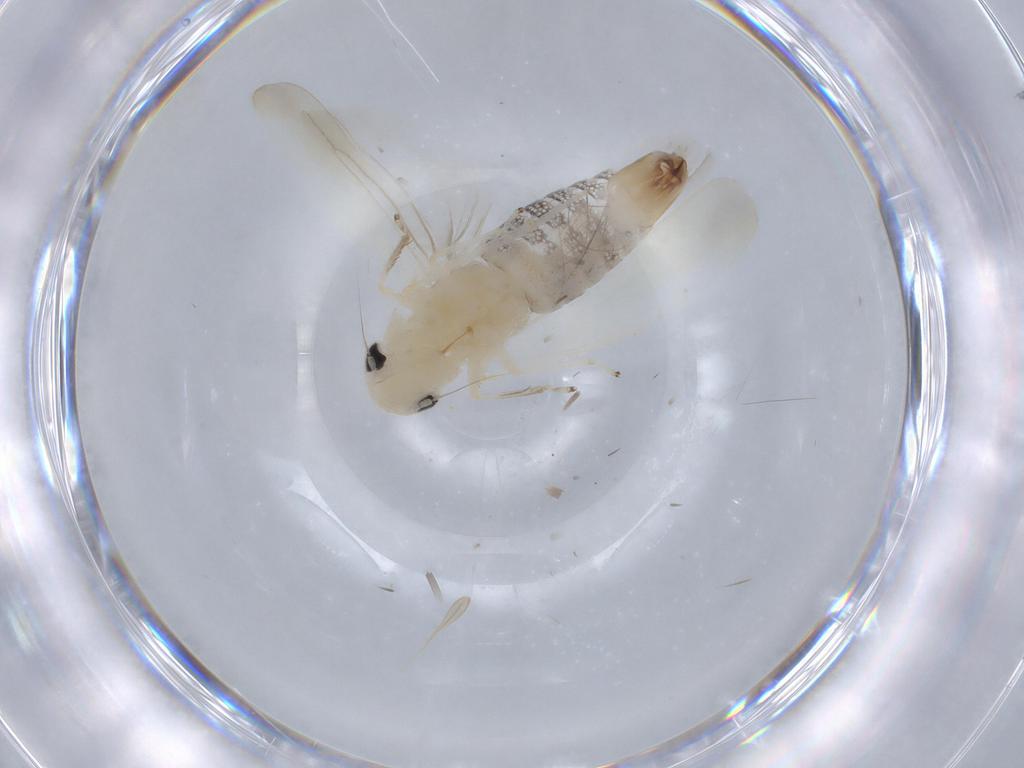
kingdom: Animalia
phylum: Arthropoda
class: Insecta
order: Hemiptera
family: Cicadellidae
